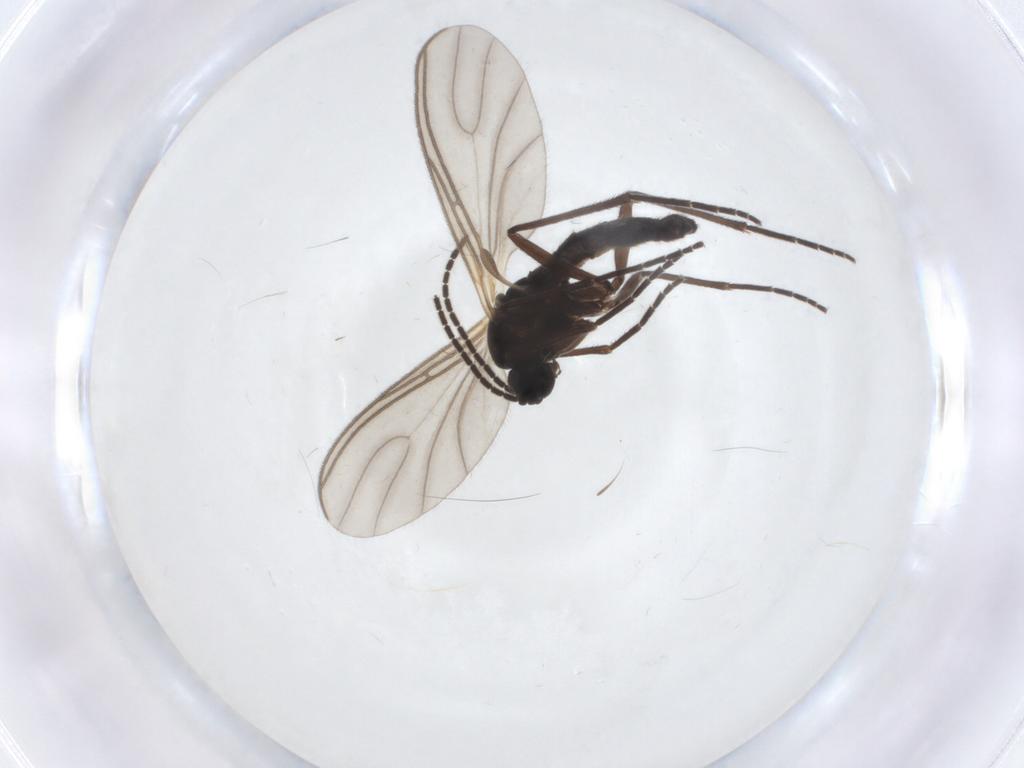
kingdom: Animalia
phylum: Arthropoda
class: Insecta
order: Diptera
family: Sciaridae
